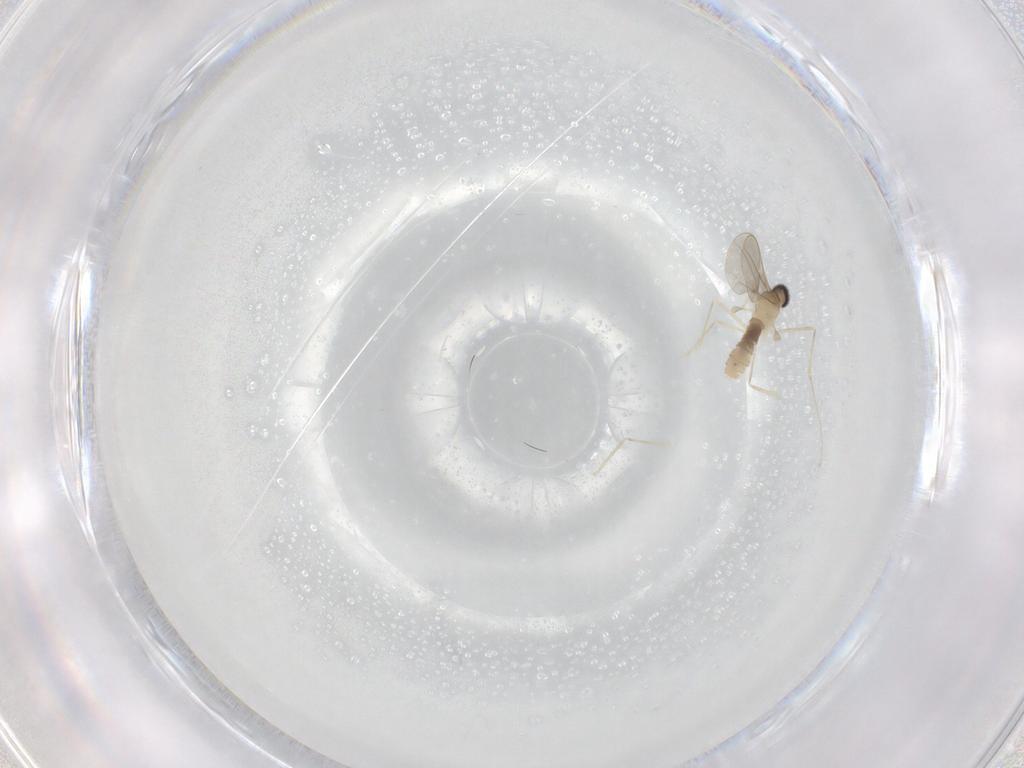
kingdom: Animalia
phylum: Arthropoda
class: Insecta
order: Diptera
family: Cecidomyiidae
